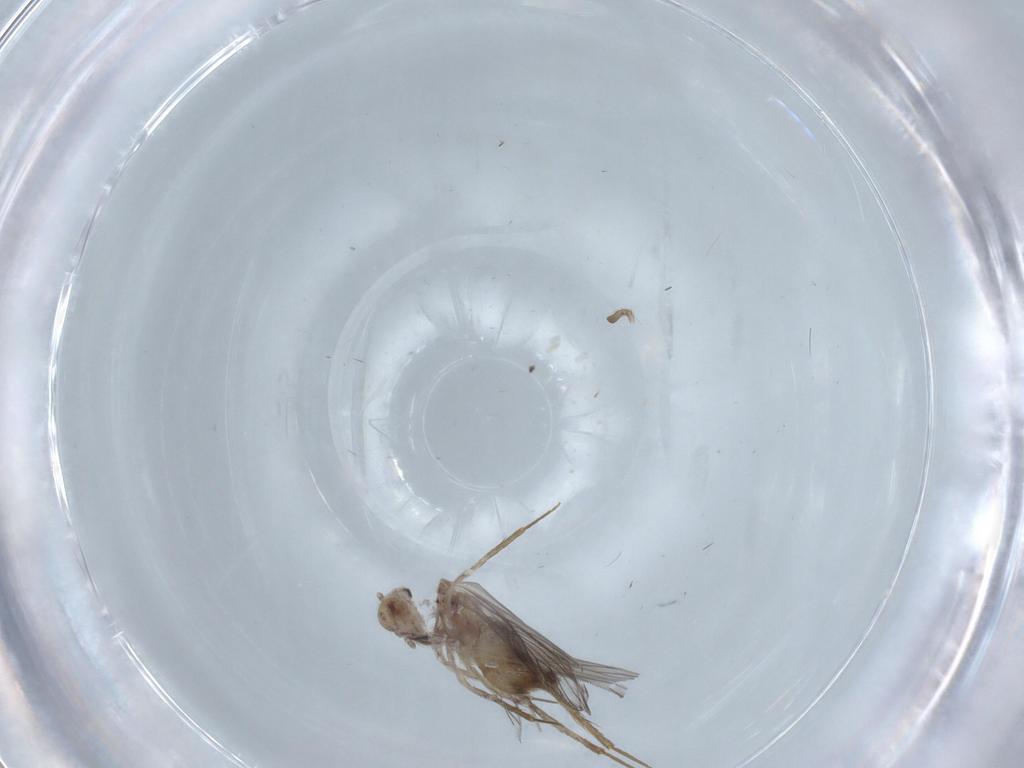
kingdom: Animalia
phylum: Arthropoda
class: Insecta
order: Psocodea
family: Lepidopsocidae
